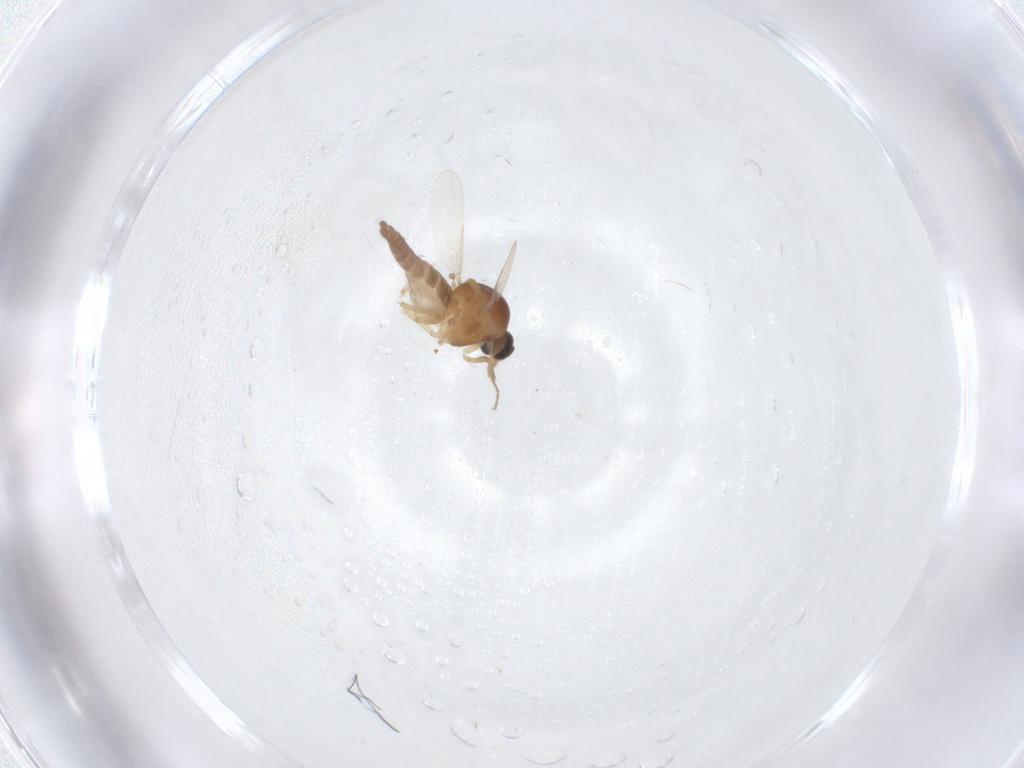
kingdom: Animalia
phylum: Arthropoda
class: Insecta
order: Diptera
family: Ceratopogonidae
